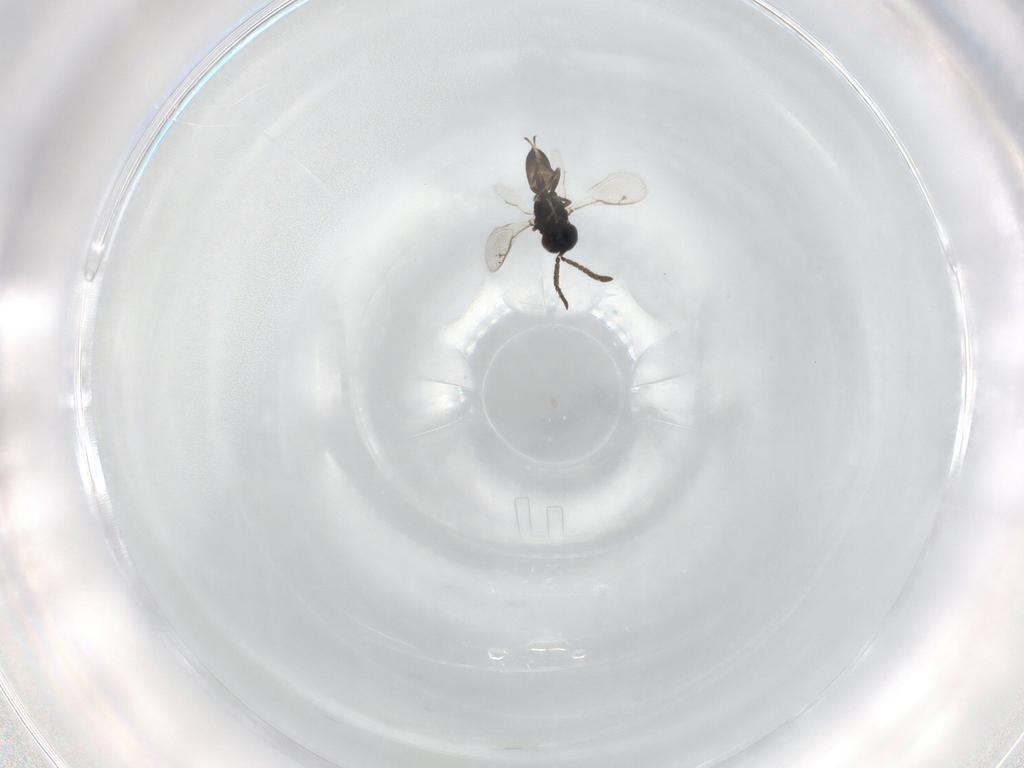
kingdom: Animalia
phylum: Arthropoda
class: Insecta
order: Hymenoptera
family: Pteromalidae
